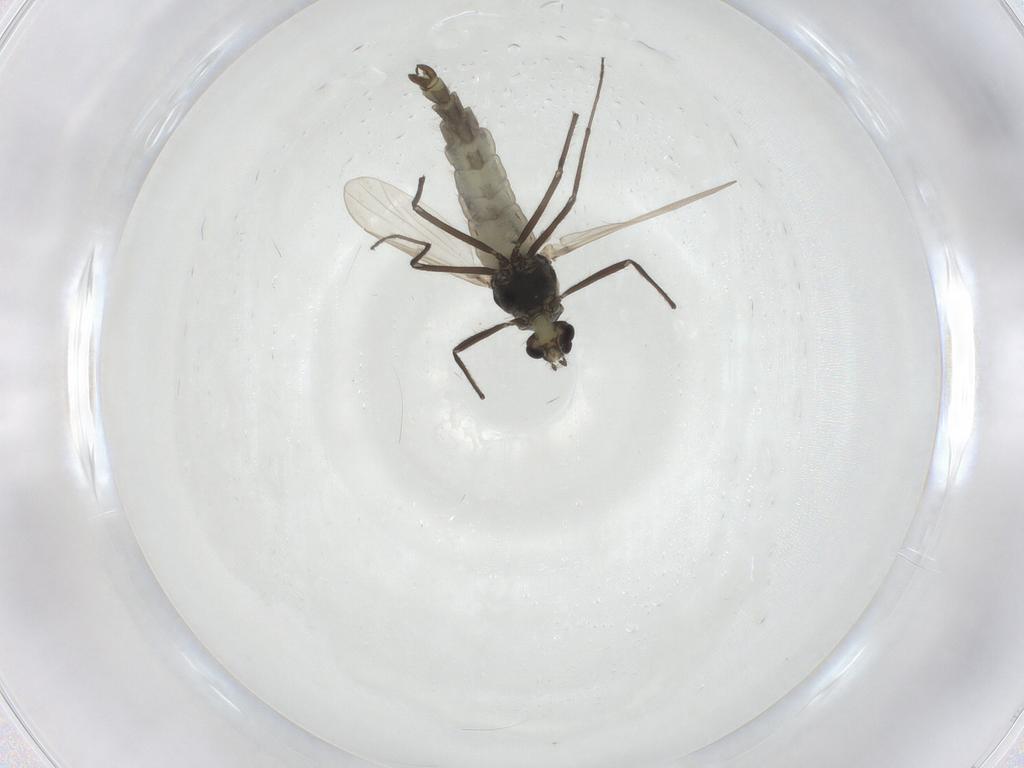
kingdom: Animalia
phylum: Arthropoda
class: Insecta
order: Diptera
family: Chironomidae
